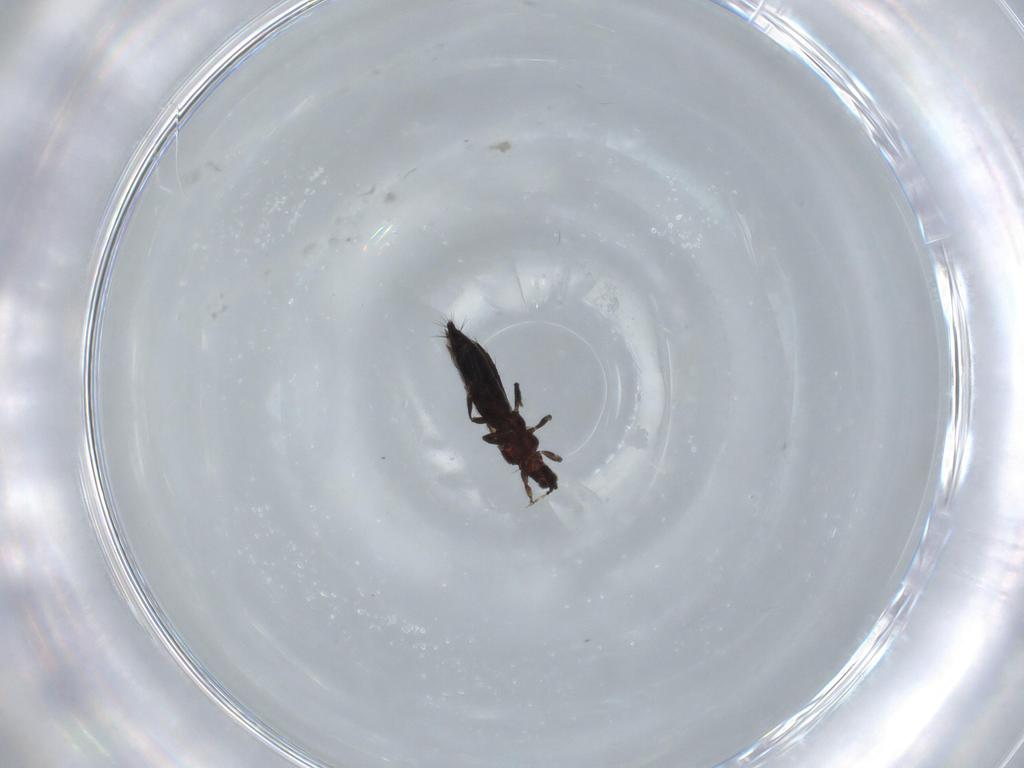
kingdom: Animalia
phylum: Arthropoda
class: Insecta
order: Thysanoptera
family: Thripidae
